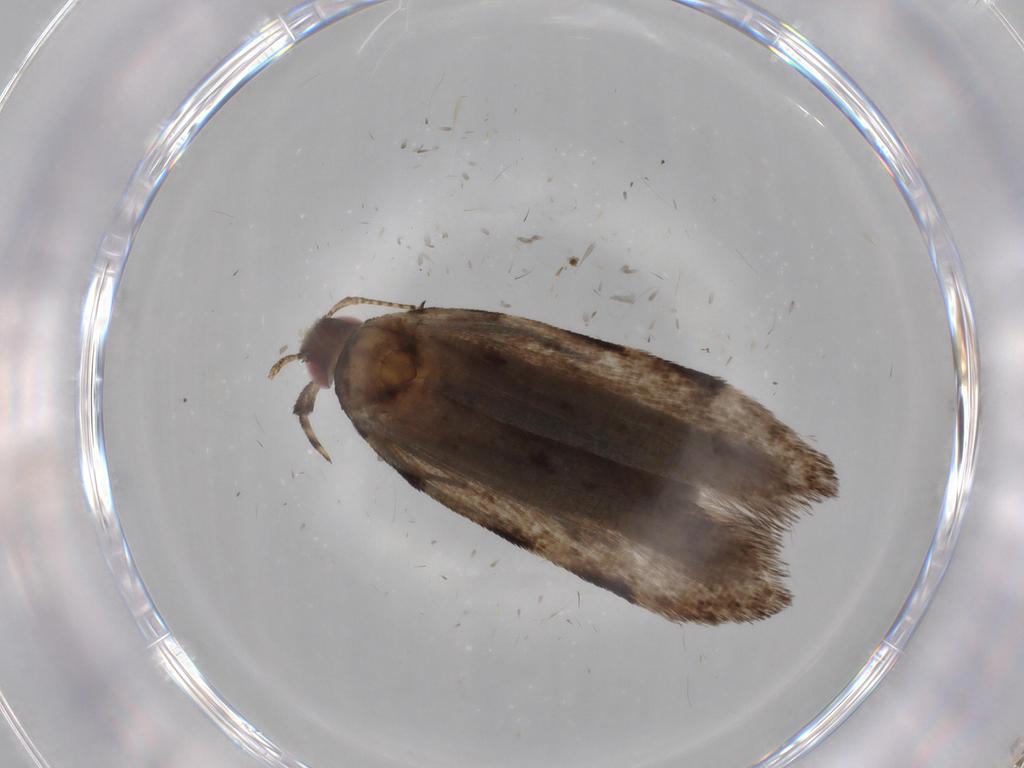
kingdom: Animalia
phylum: Arthropoda
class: Insecta
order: Lepidoptera
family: Gelechiidae
